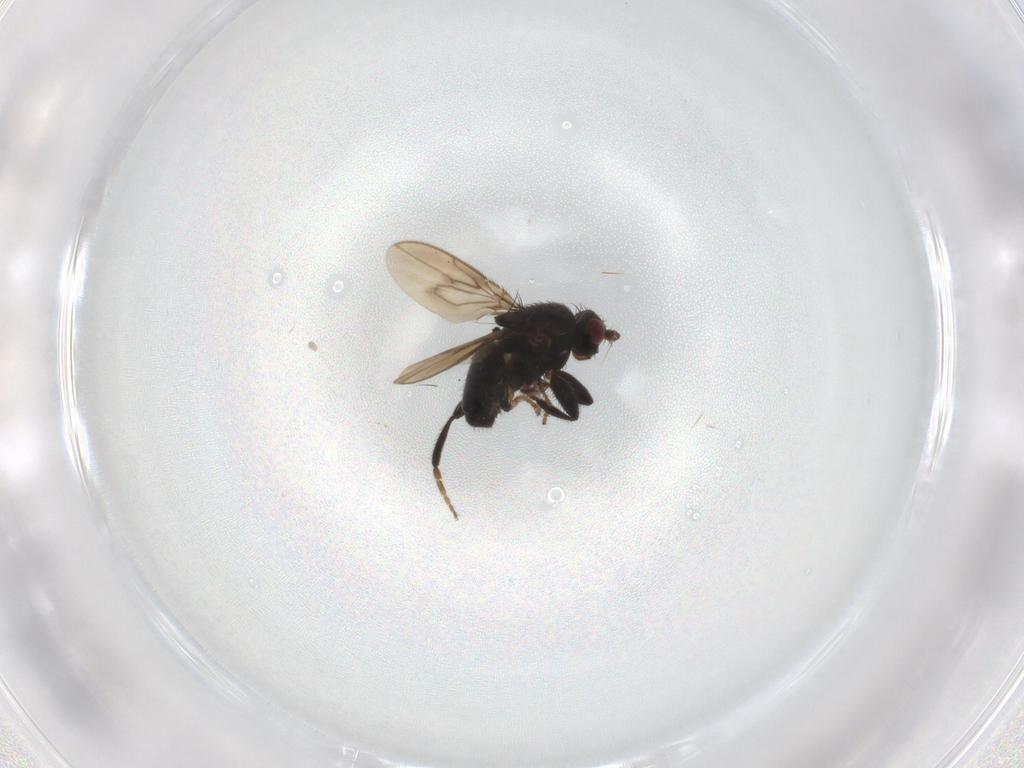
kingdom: Animalia
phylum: Arthropoda
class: Insecta
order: Diptera
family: Sphaeroceridae
